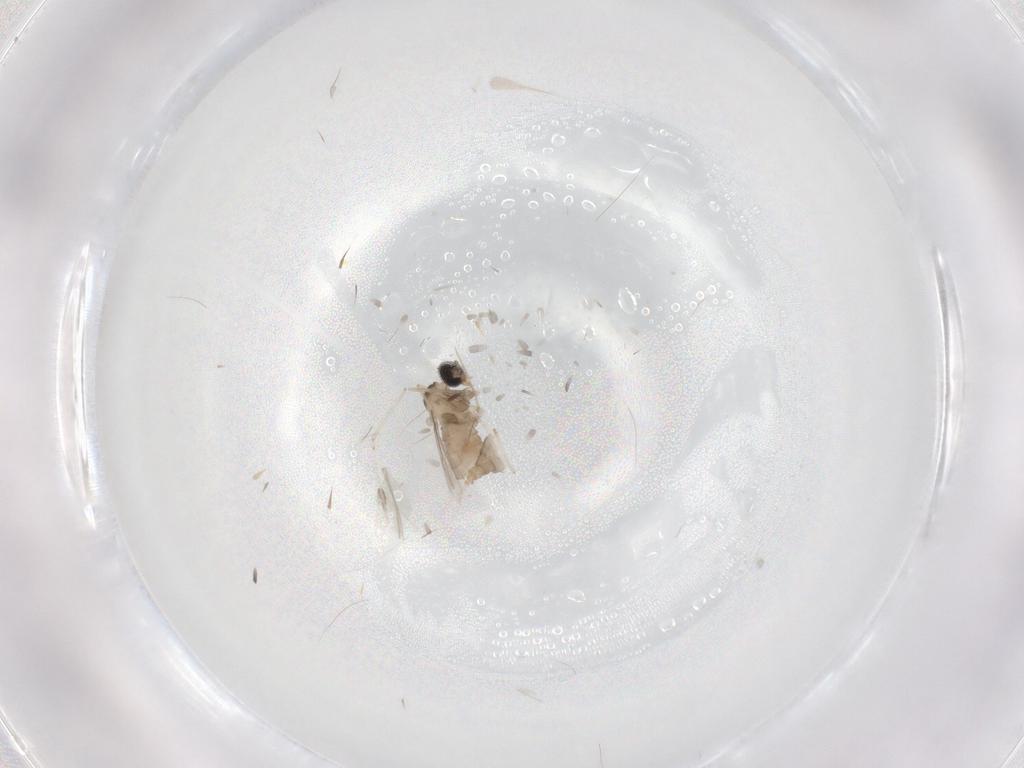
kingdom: Animalia
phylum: Arthropoda
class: Insecta
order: Diptera
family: Cecidomyiidae
